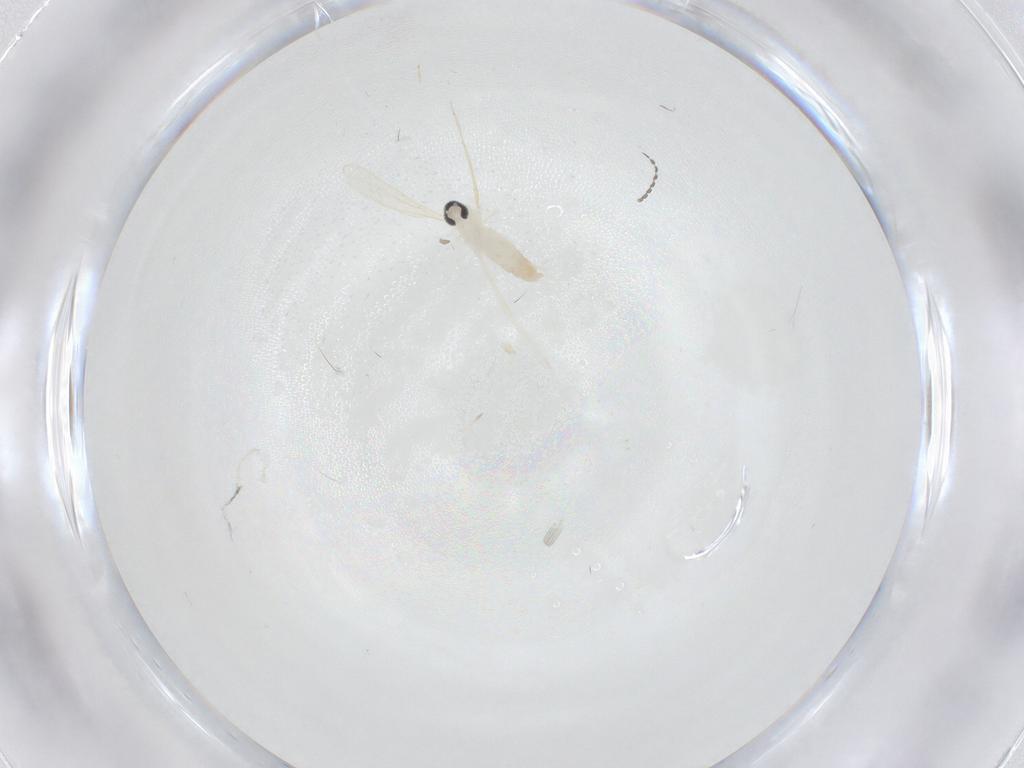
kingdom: Animalia
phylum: Arthropoda
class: Insecta
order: Diptera
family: Cecidomyiidae
